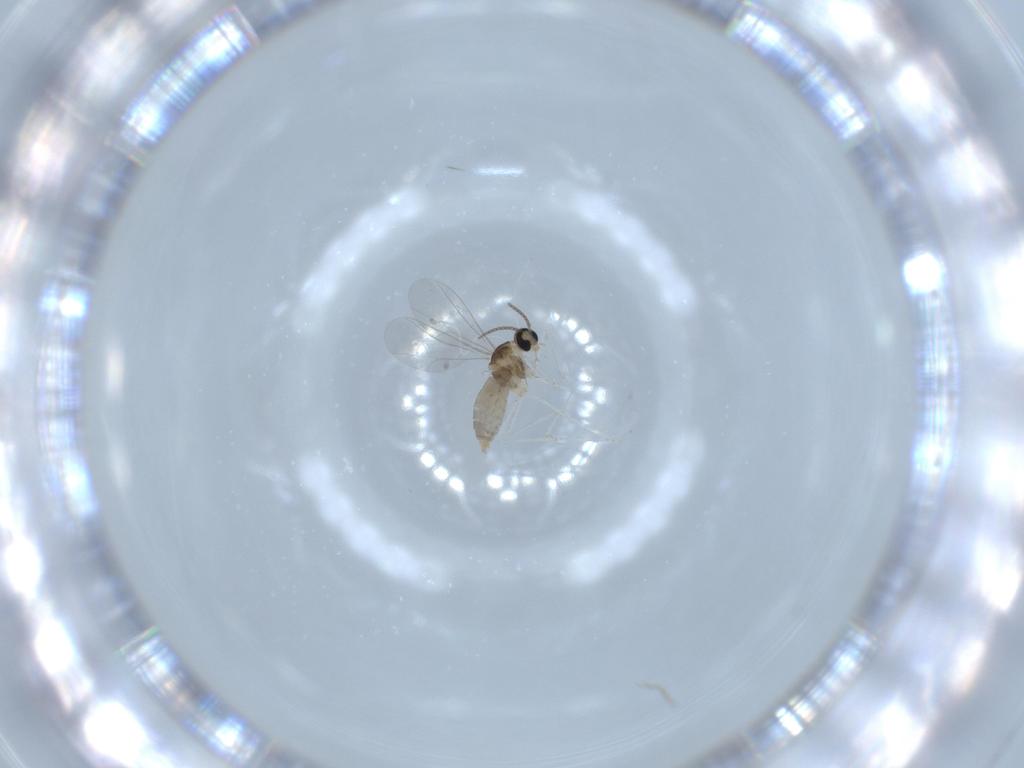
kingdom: Animalia
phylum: Arthropoda
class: Insecta
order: Diptera
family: Cecidomyiidae
